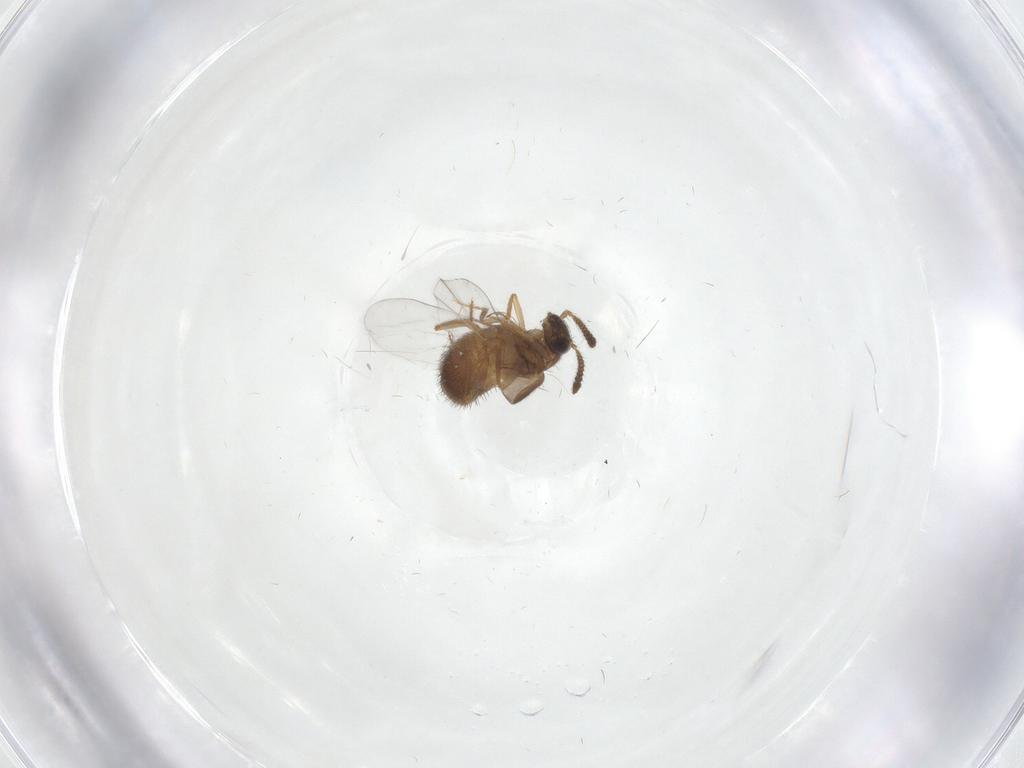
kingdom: Animalia
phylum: Arthropoda
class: Insecta
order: Coleoptera
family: Staphylinidae
